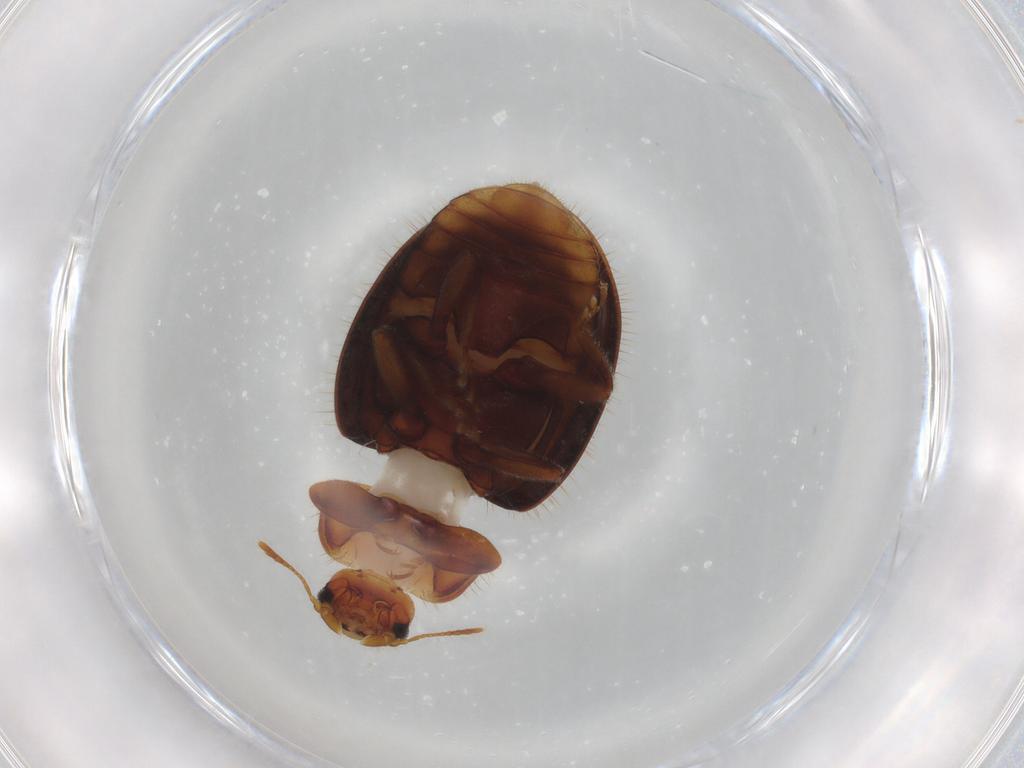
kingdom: Animalia
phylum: Arthropoda
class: Insecta
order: Coleoptera
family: Coccinellidae
